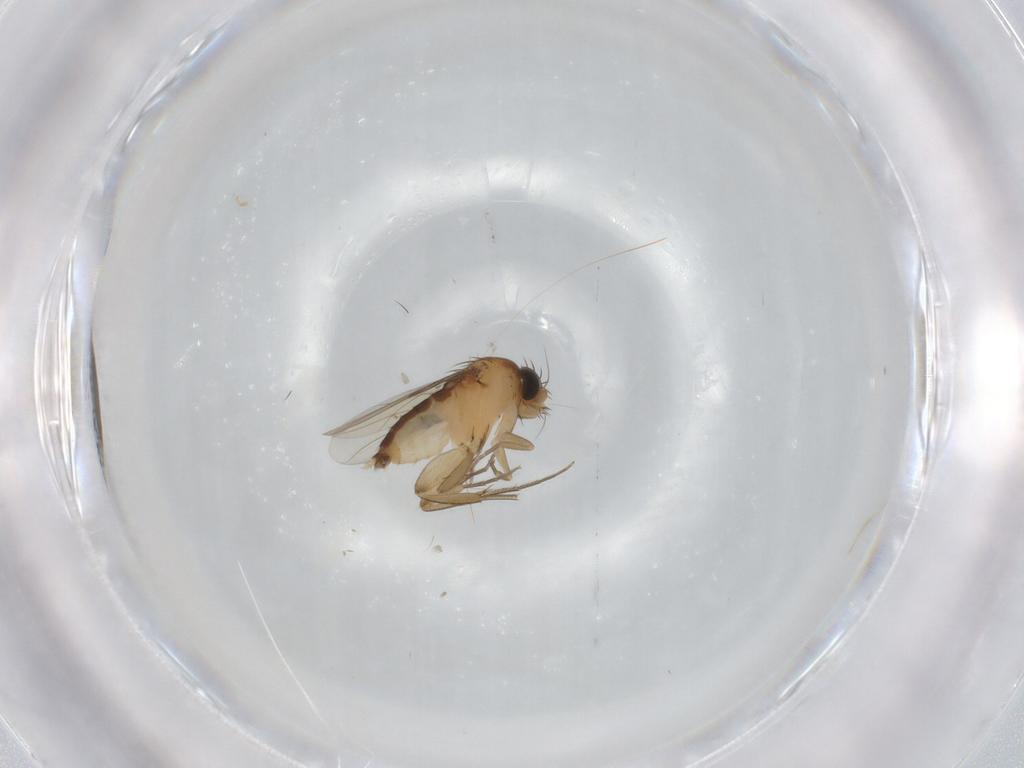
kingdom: Animalia
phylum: Arthropoda
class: Insecta
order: Diptera
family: Phoridae
